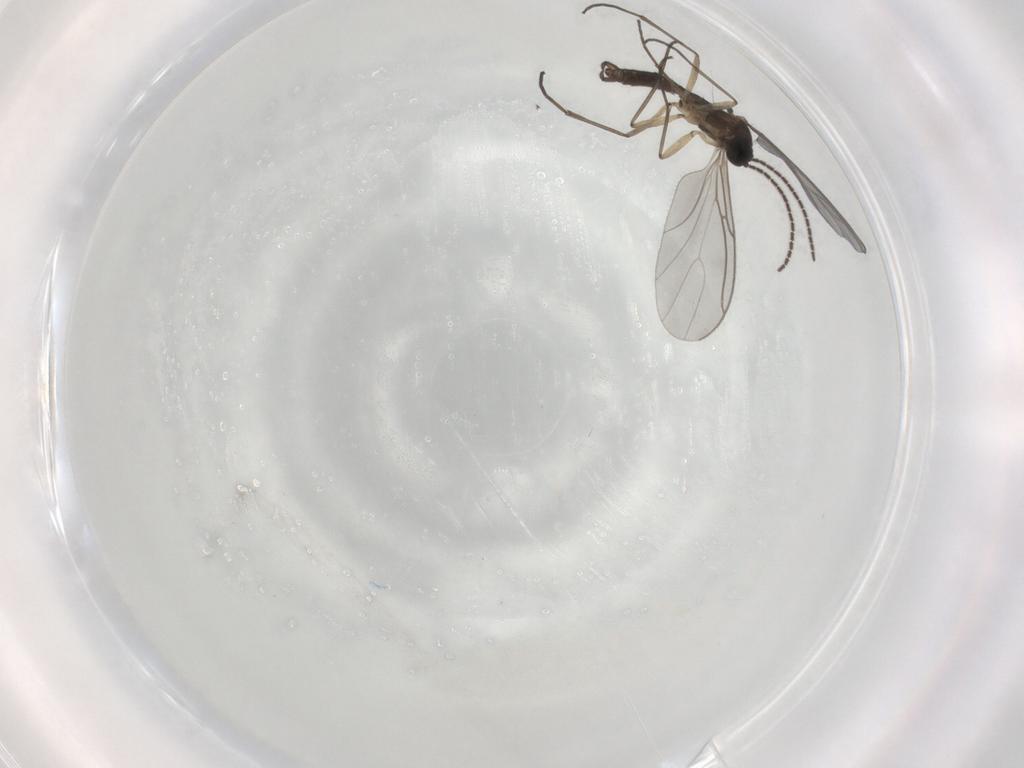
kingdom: Animalia
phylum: Arthropoda
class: Insecta
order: Diptera
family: Sciaridae
